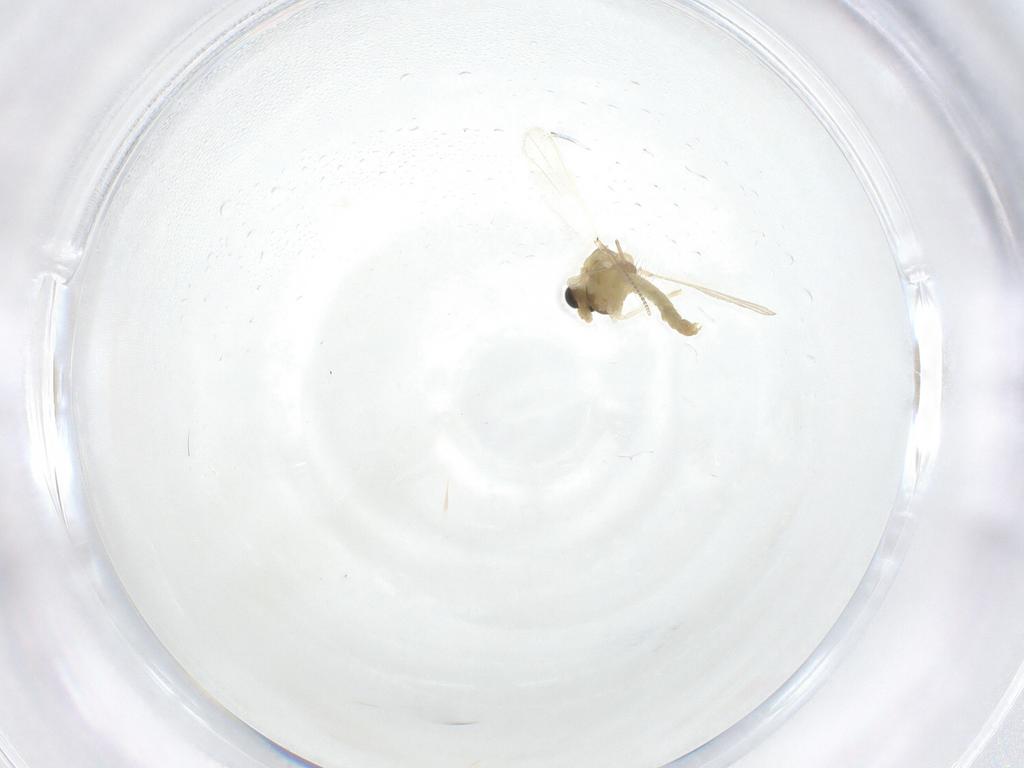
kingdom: Animalia
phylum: Arthropoda
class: Insecta
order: Diptera
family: Chironomidae
